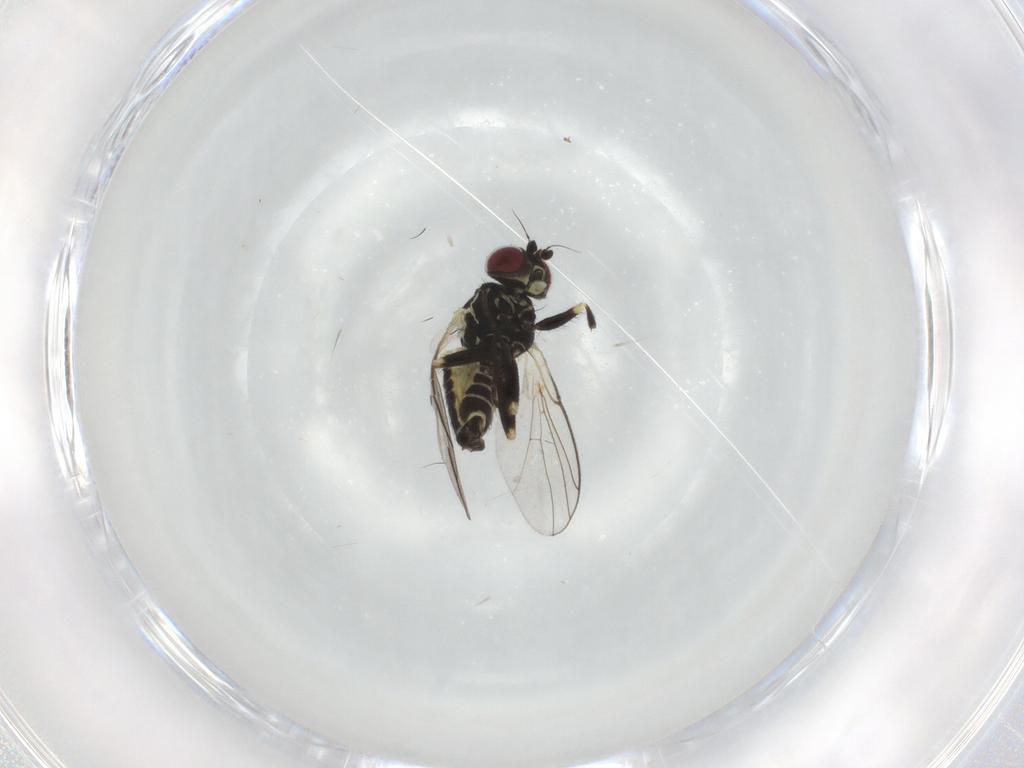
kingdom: Animalia
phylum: Arthropoda
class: Insecta
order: Diptera
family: Agromyzidae
